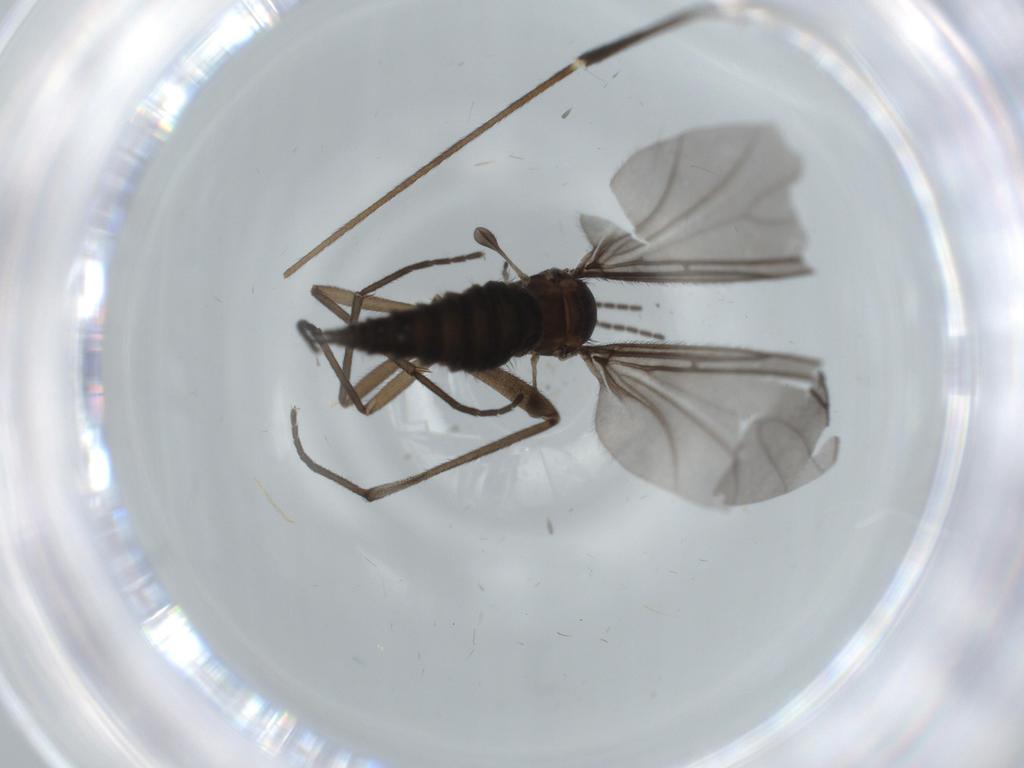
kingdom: Animalia
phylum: Arthropoda
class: Insecta
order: Diptera
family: Sciaridae
